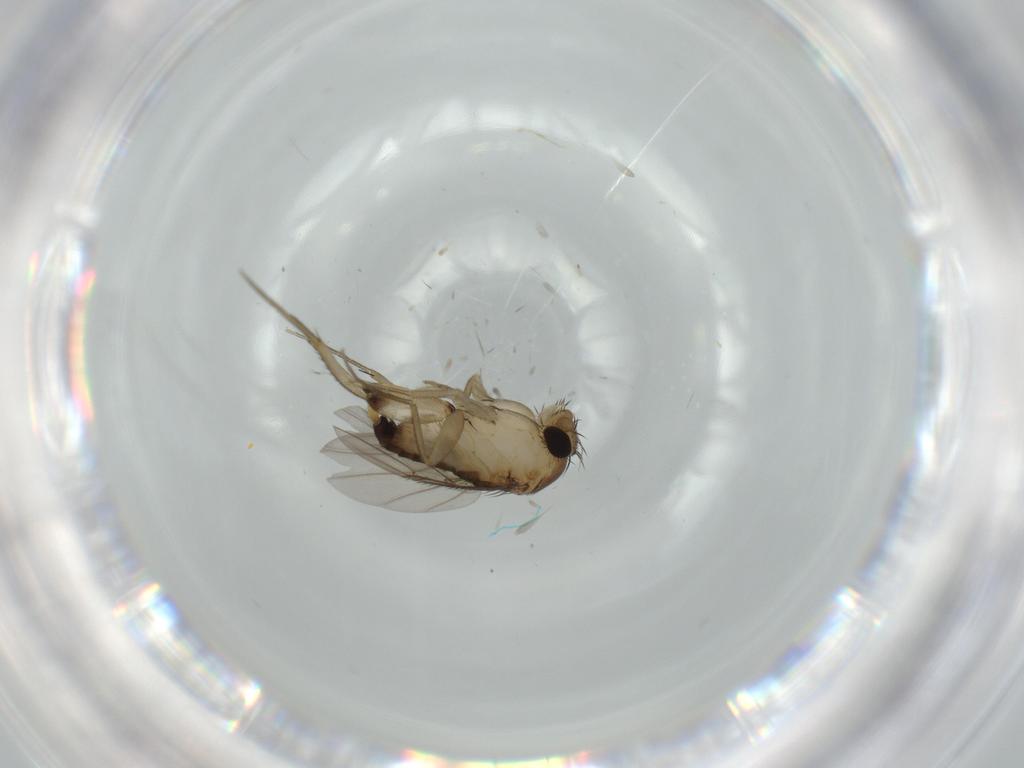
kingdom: Animalia
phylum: Arthropoda
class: Insecta
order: Diptera
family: Phoridae
